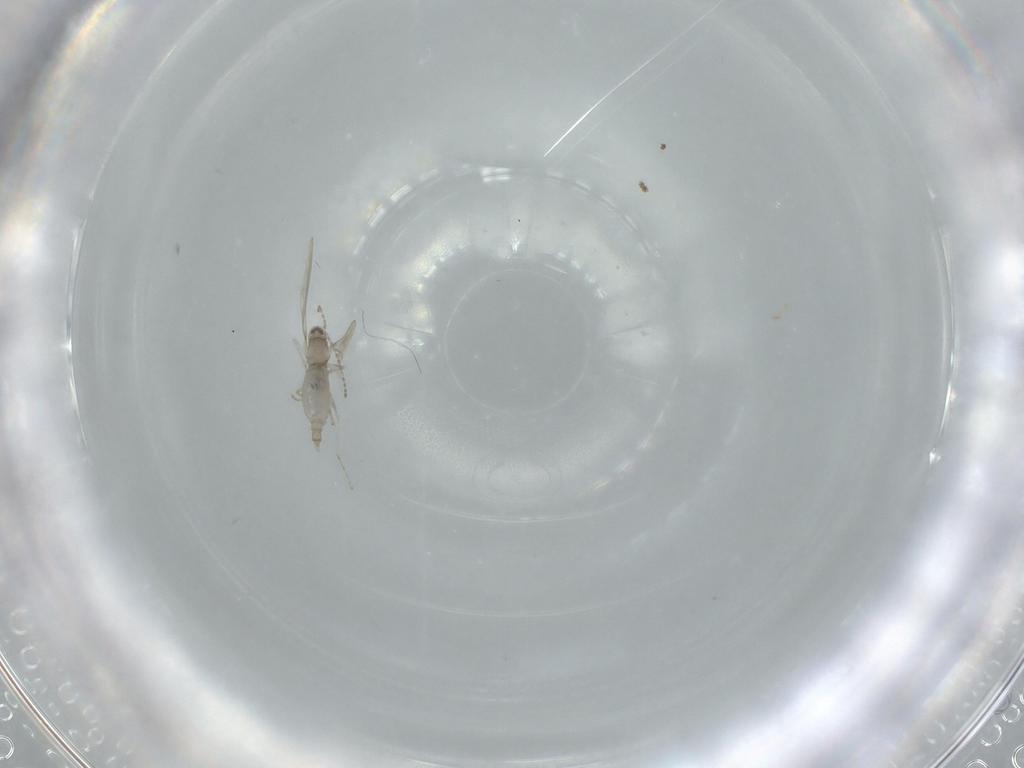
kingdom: Animalia
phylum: Arthropoda
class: Insecta
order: Diptera
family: Cecidomyiidae
